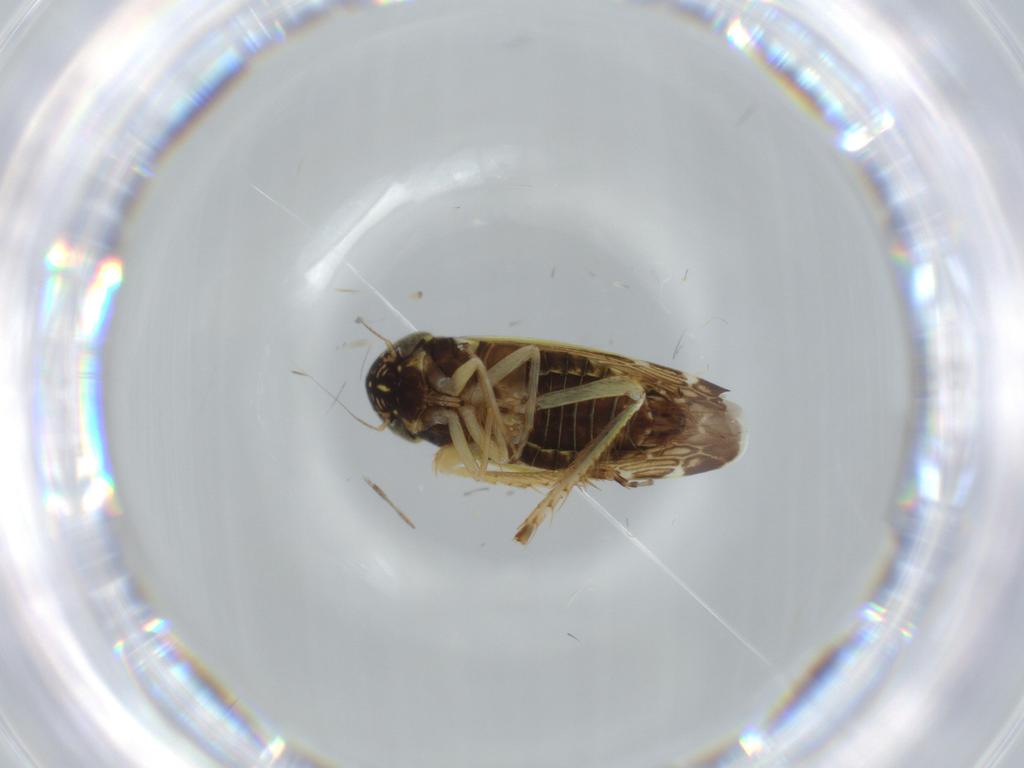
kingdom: Animalia
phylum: Arthropoda
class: Insecta
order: Hemiptera
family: Cicadellidae
